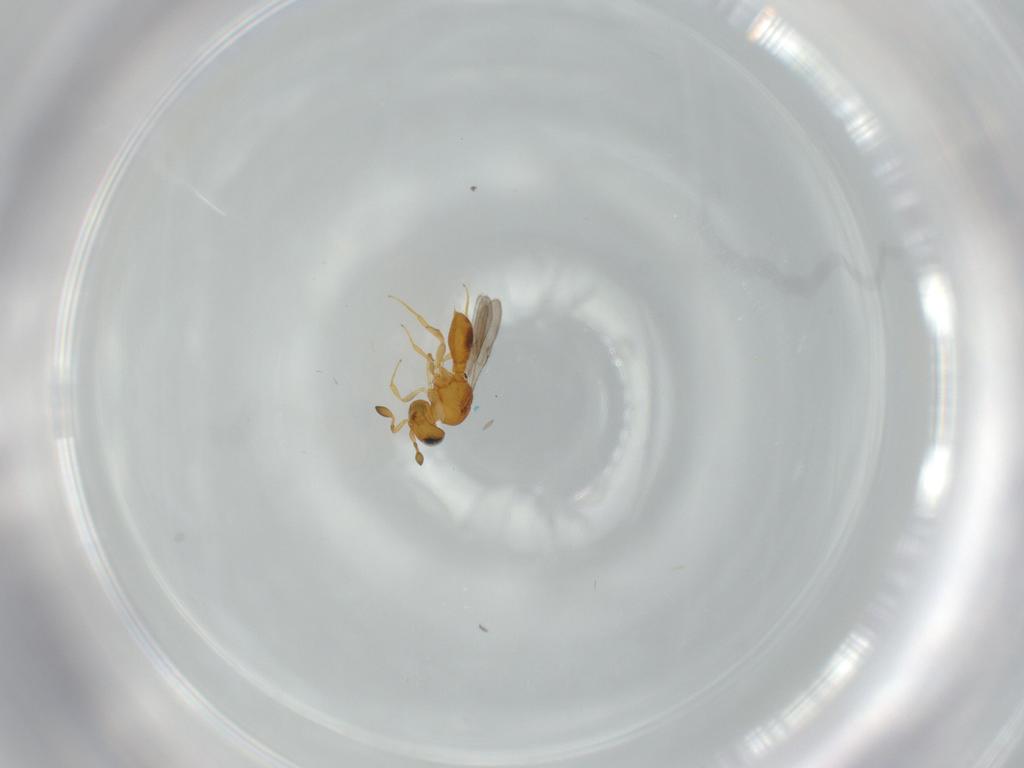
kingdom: Animalia
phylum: Arthropoda
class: Insecta
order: Hymenoptera
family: Scelionidae
